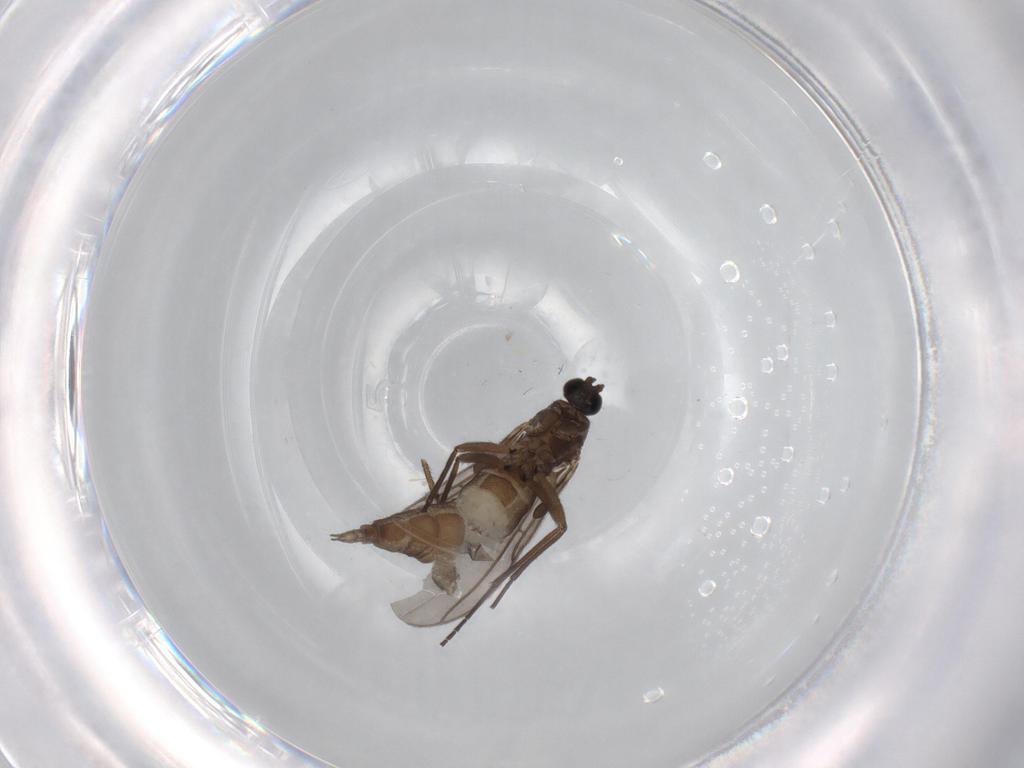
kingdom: Animalia
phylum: Arthropoda
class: Insecta
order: Diptera
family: Sciaridae
